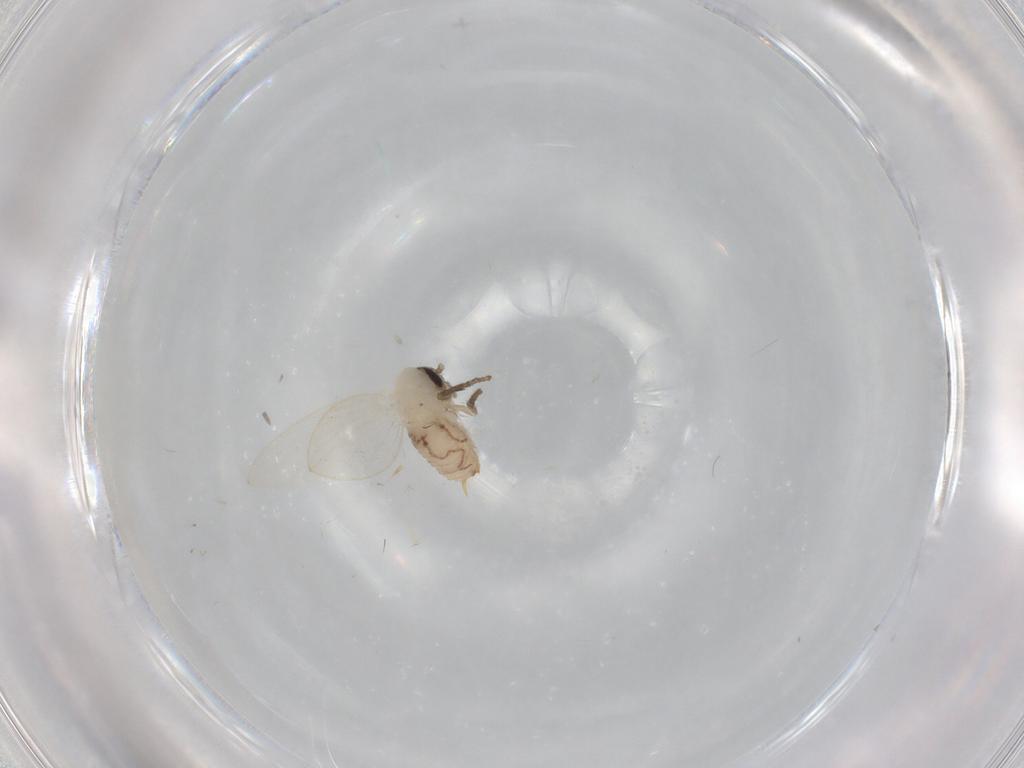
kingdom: Animalia
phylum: Arthropoda
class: Insecta
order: Diptera
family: Psychodidae
